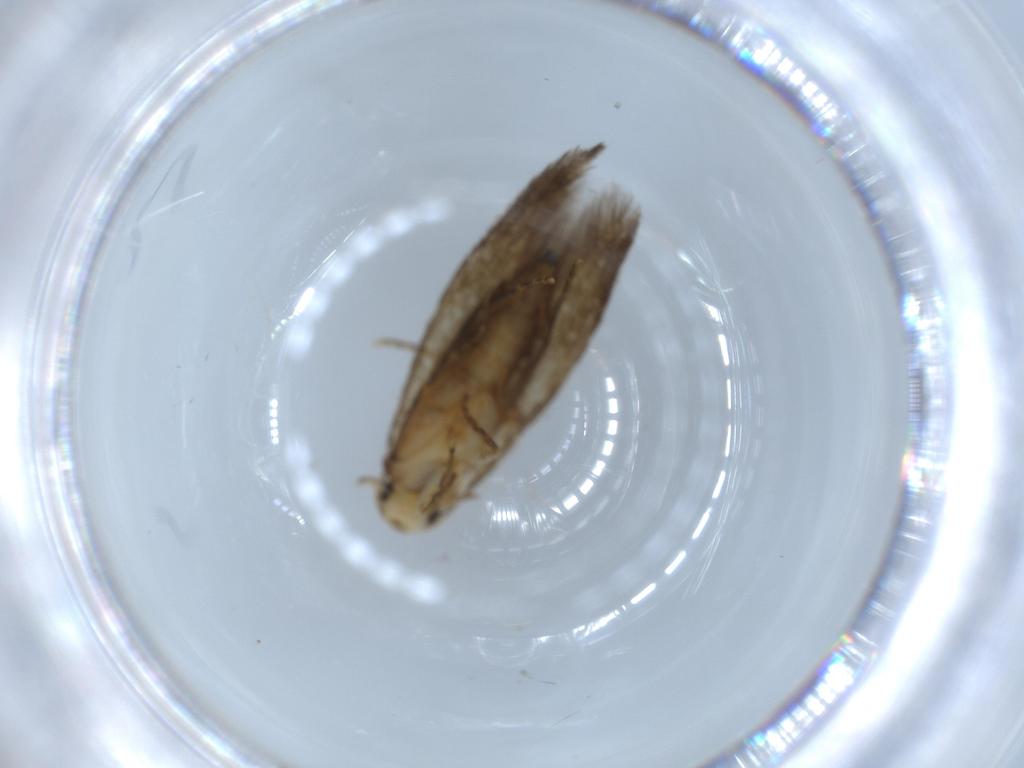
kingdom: Animalia
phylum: Arthropoda
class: Insecta
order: Lepidoptera
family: Tineidae
